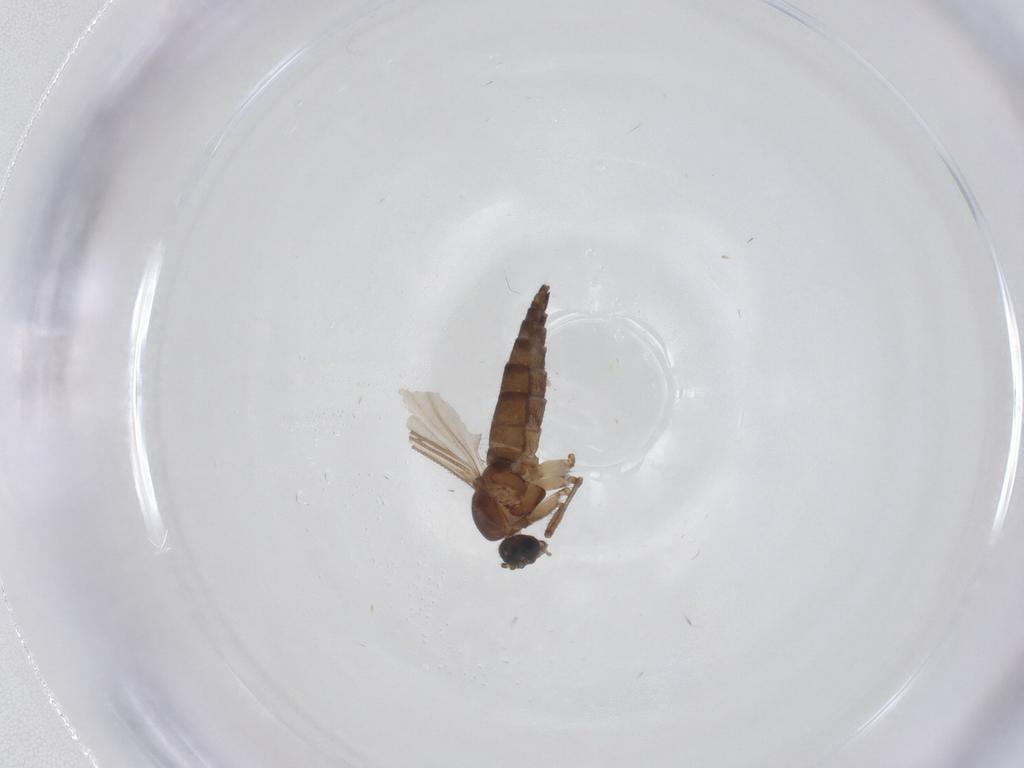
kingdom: Animalia
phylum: Arthropoda
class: Insecta
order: Diptera
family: Sciaridae
